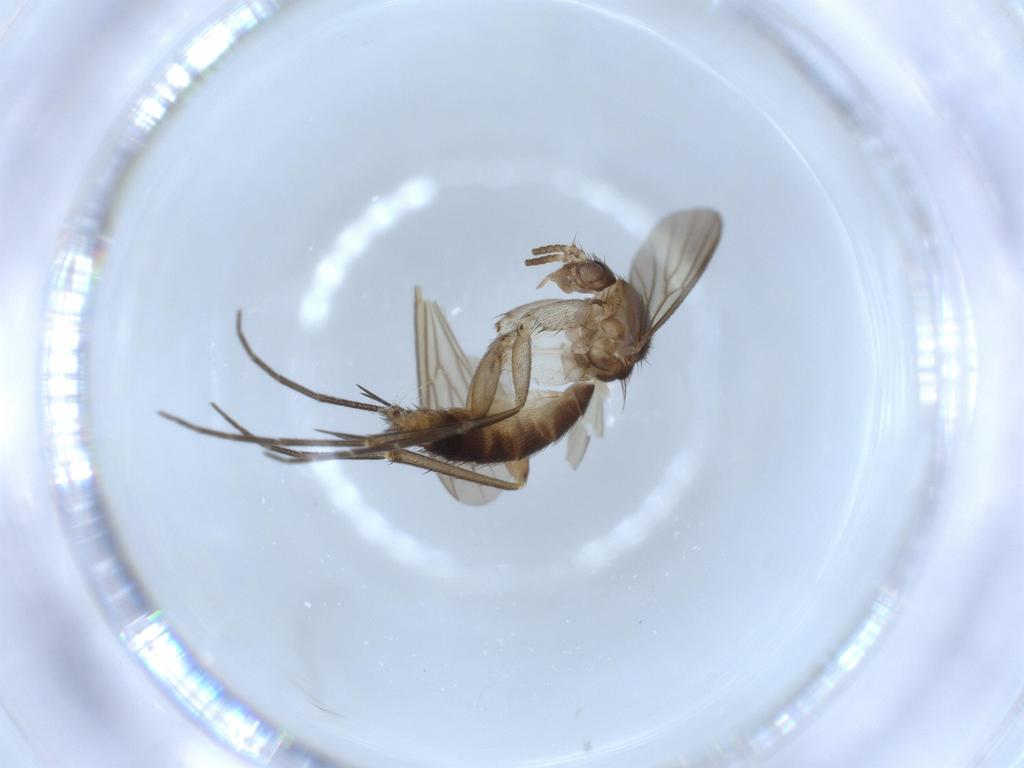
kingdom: Animalia
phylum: Arthropoda
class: Insecta
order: Diptera
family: Mycetophilidae
